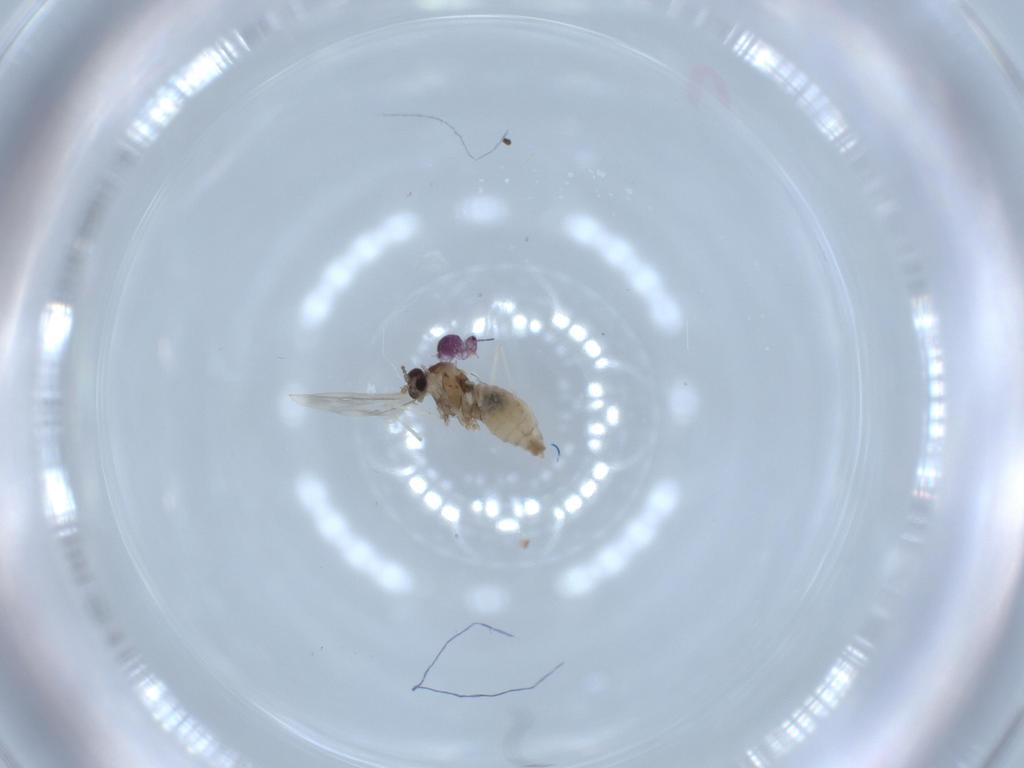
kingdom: Animalia
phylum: Arthropoda
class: Insecta
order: Diptera
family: Cecidomyiidae
